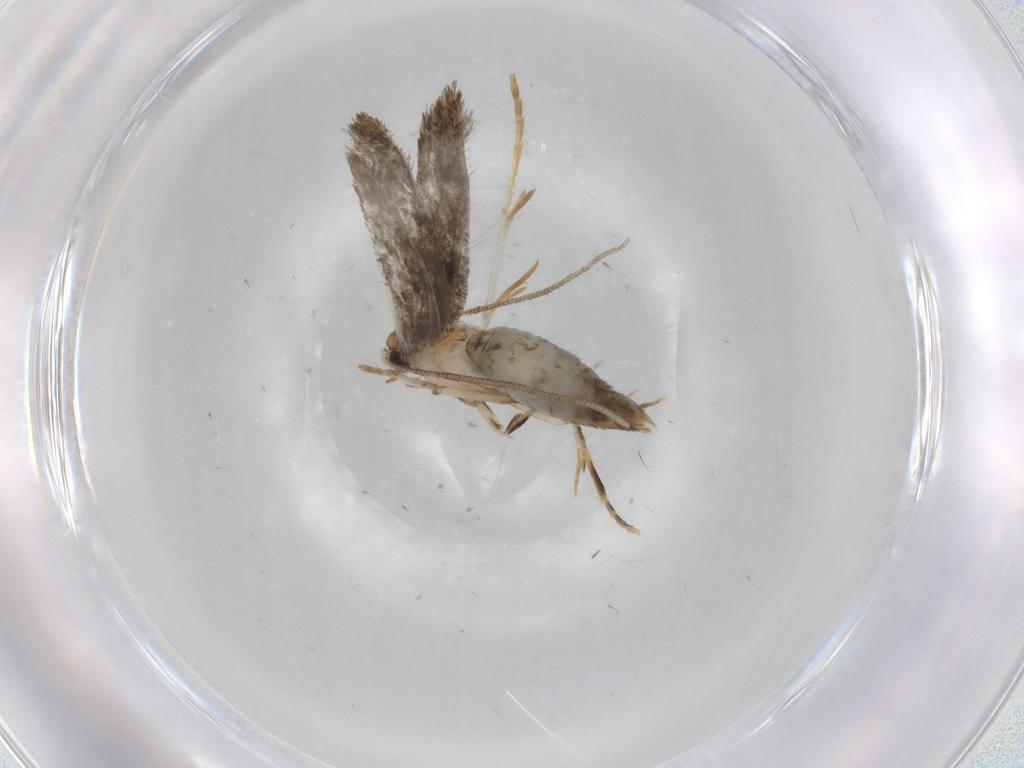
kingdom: Animalia
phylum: Arthropoda
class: Insecta
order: Lepidoptera
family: Tineidae
